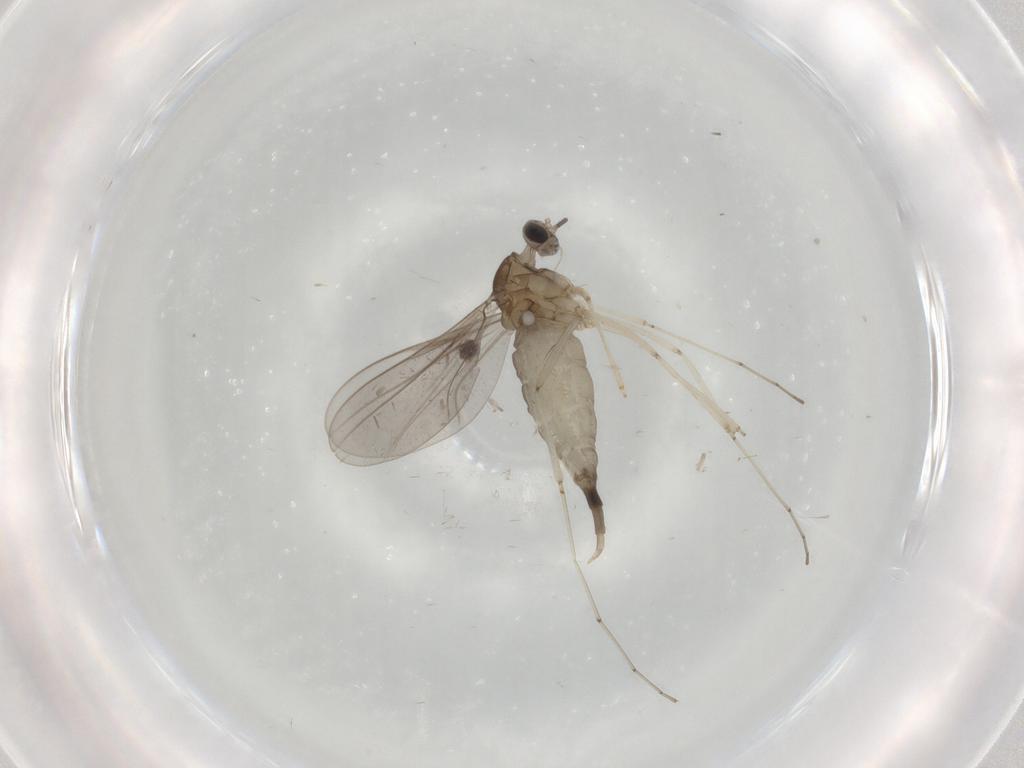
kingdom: Animalia
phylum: Arthropoda
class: Insecta
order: Diptera
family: Cecidomyiidae
